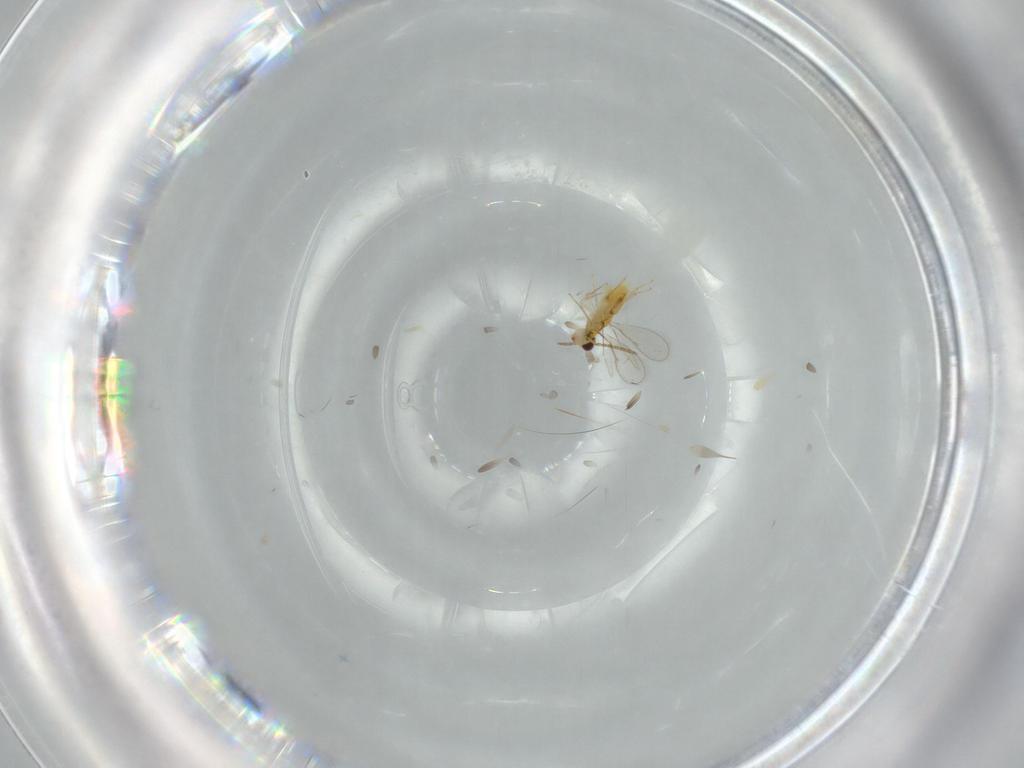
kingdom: Animalia
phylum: Arthropoda
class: Insecta
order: Hymenoptera
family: Aphelinidae
